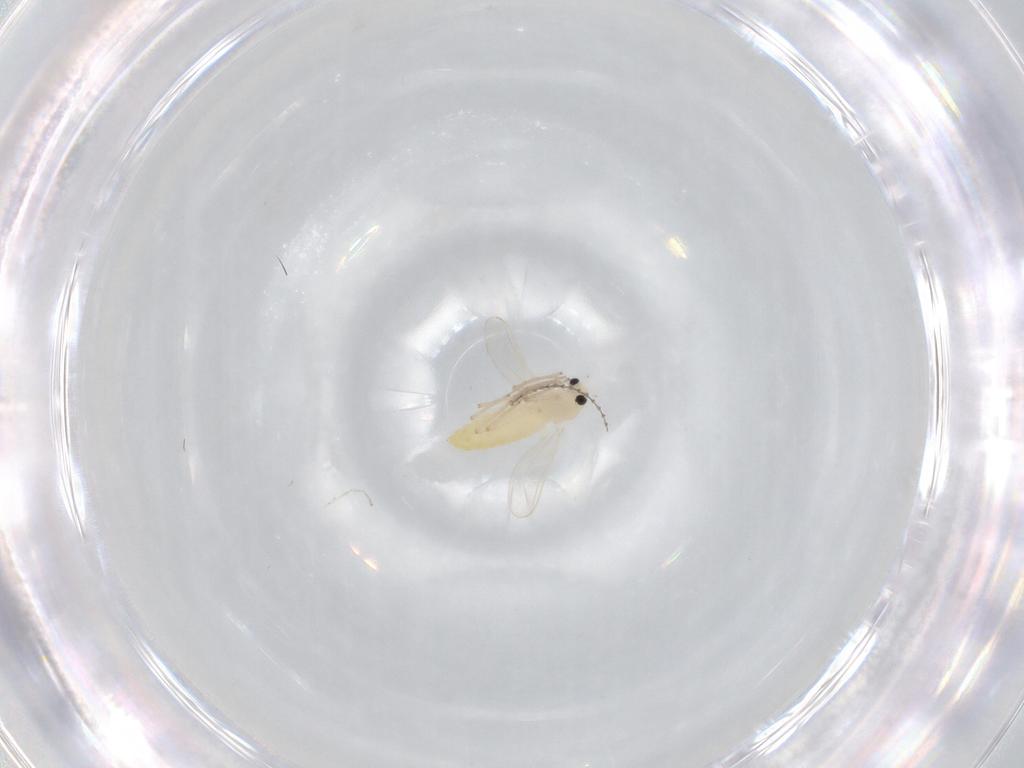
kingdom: Animalia
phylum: Arthropoda
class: Insecta
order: Diptera
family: Chironomidae
